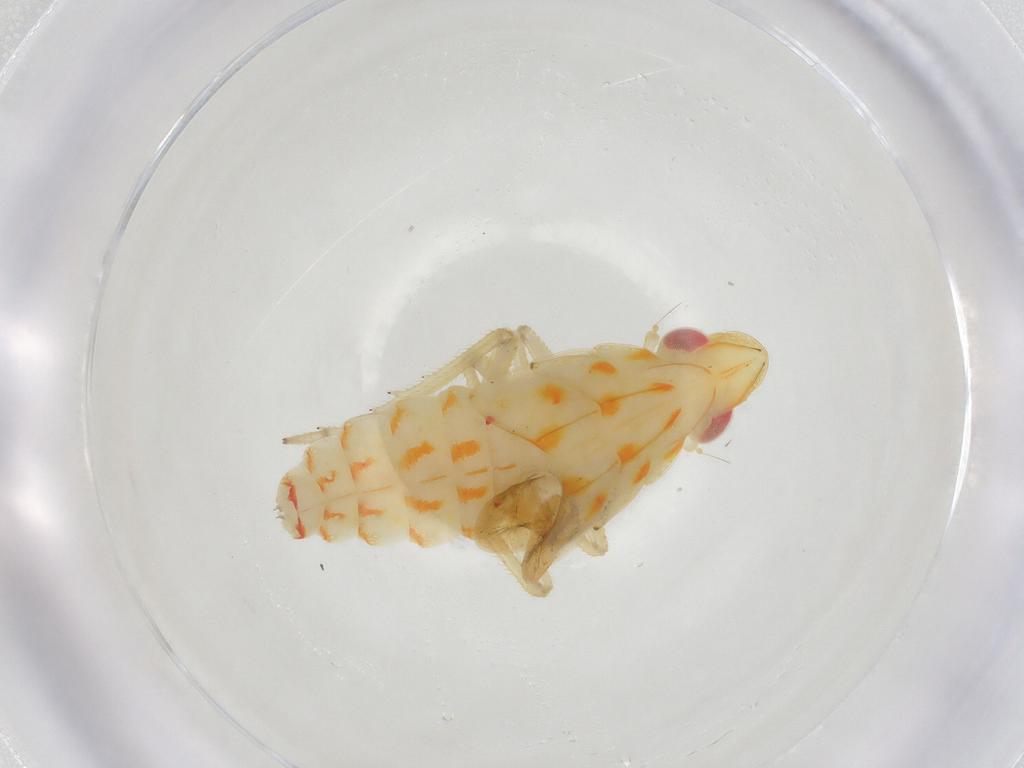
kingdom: Animalia
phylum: Arthropoda
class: Insecta
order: Hemiptera
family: Tropiduchidae
